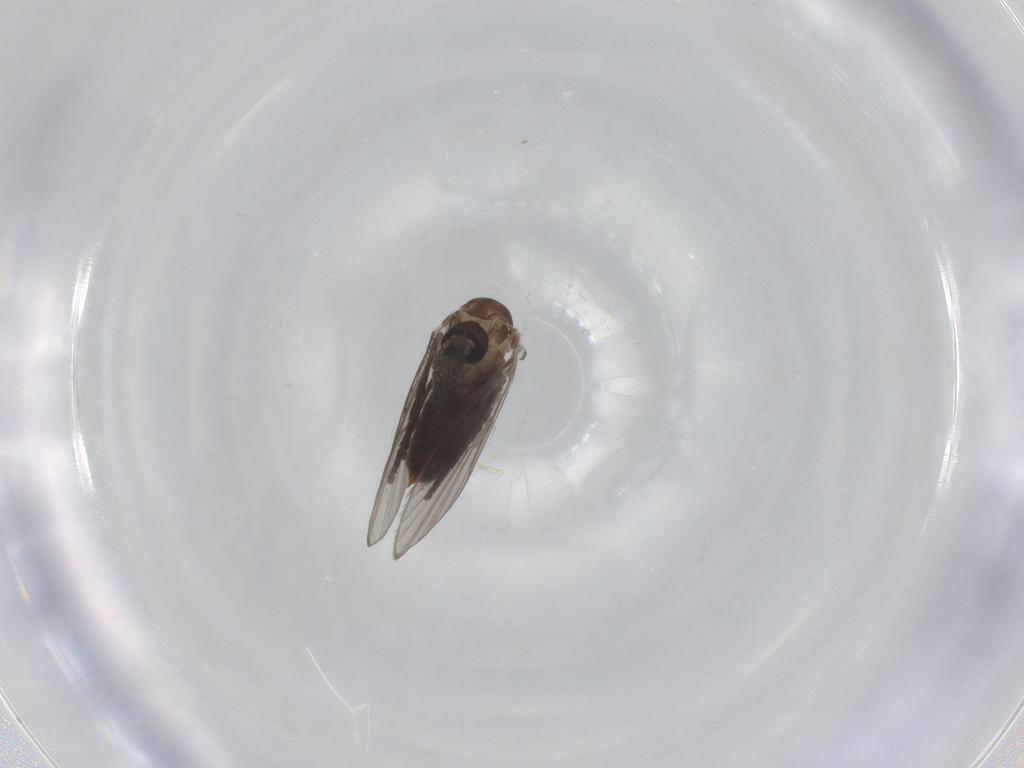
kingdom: Animalia
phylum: Arthropoda
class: Insecta
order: Diptera
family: Psychodidae
